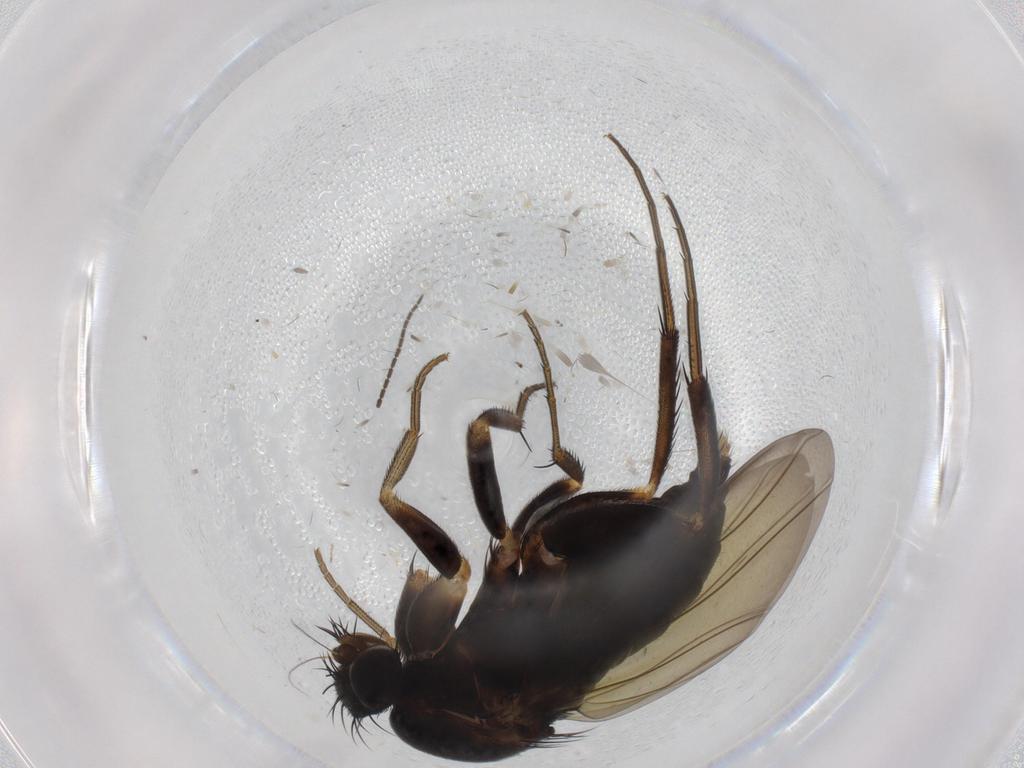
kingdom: Animalia
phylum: Arthropoda
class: Insecta
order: Diptera
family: Phoridae
